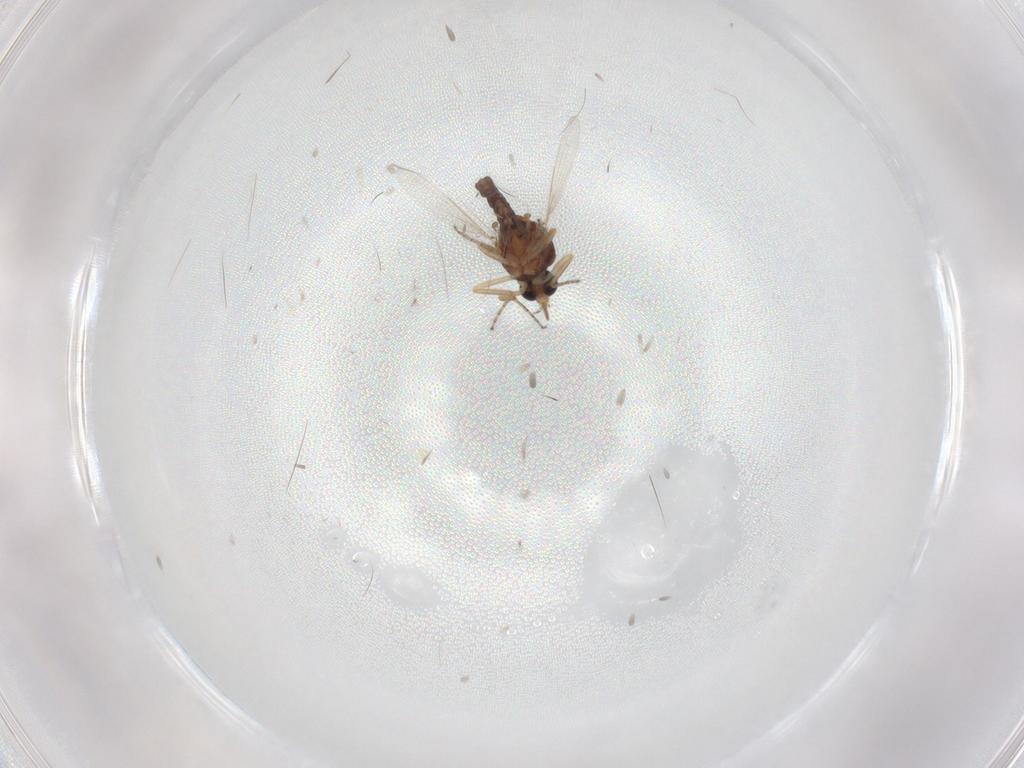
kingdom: Animalia
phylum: Arthropoda
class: Insecta
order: Diptera
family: Ceratopogonidae
